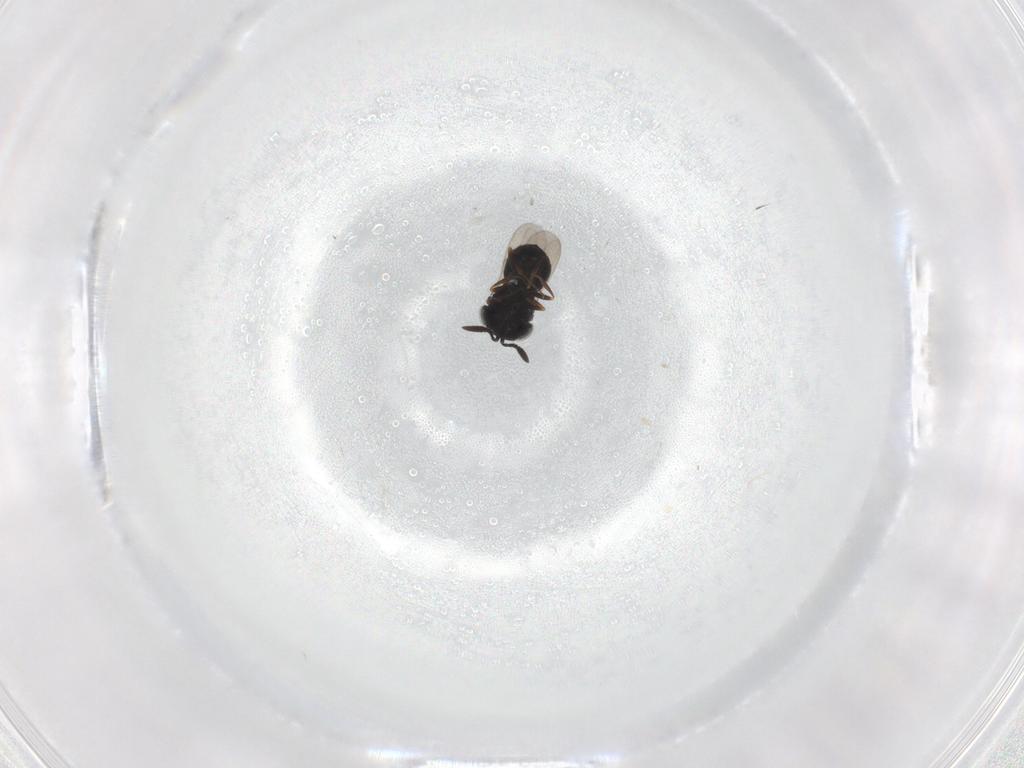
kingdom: Animalia
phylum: Arthropoda
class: Insecta
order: Hymenoptera
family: Scelionidae
